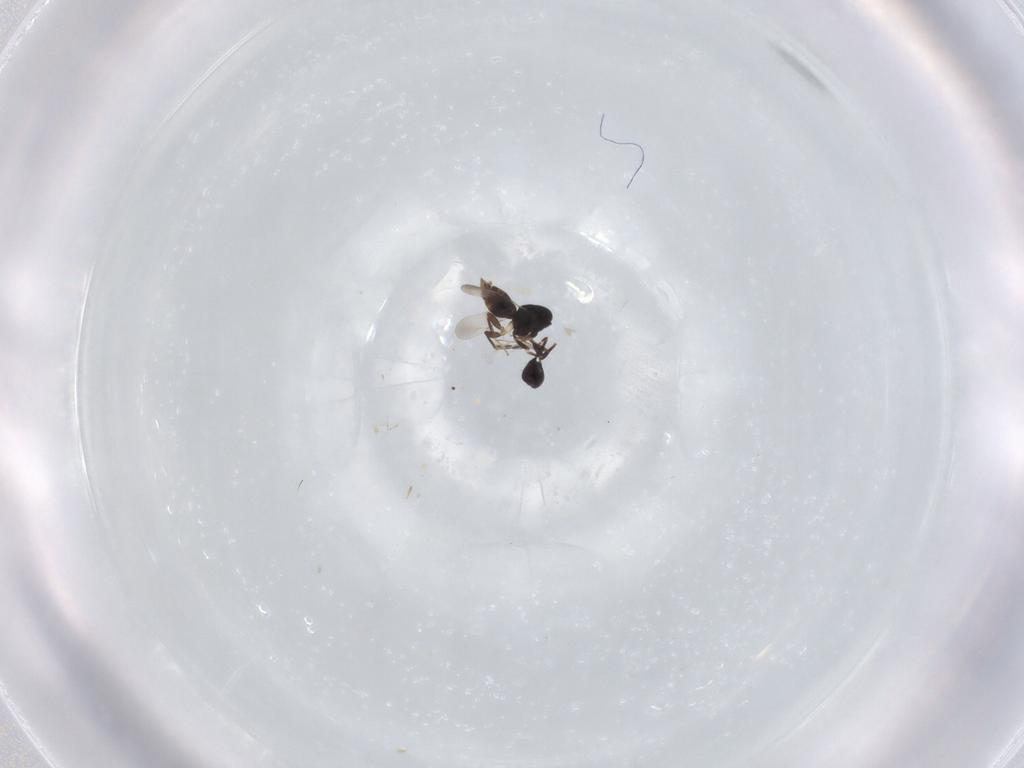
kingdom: Animalia
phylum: Arthropoda
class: Insecta
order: Hymenoptera
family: Ceraphronidae
